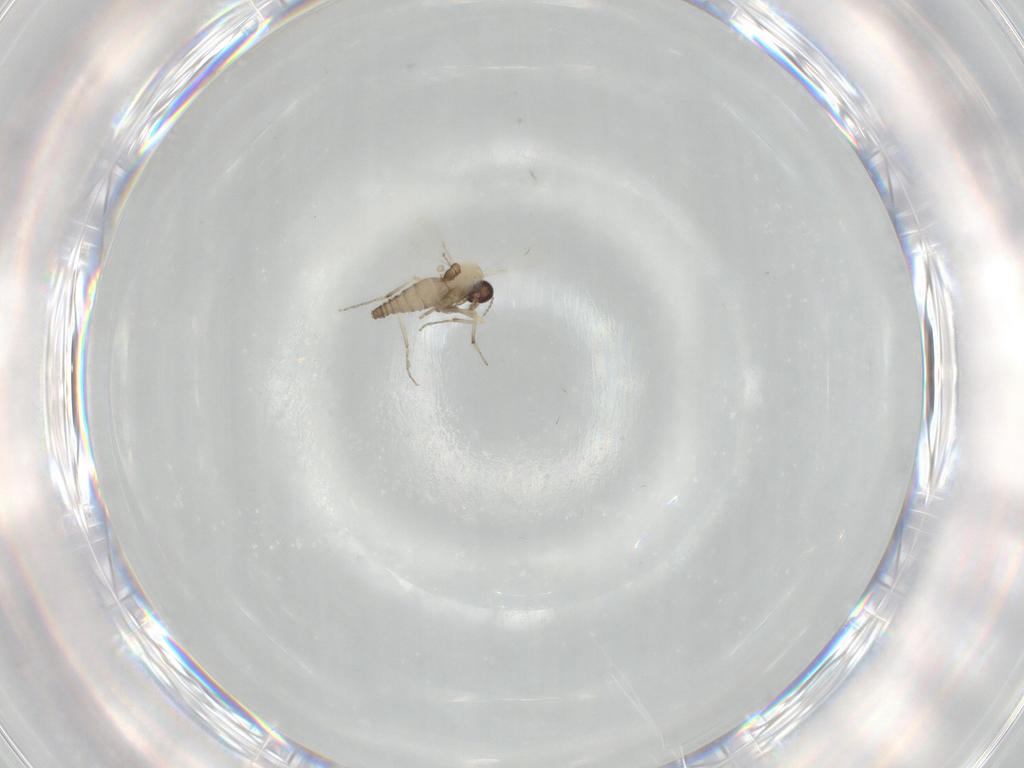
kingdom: Animalia
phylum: Arthropoda
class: Insecta
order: Diptera
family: Ceratopogonidae
